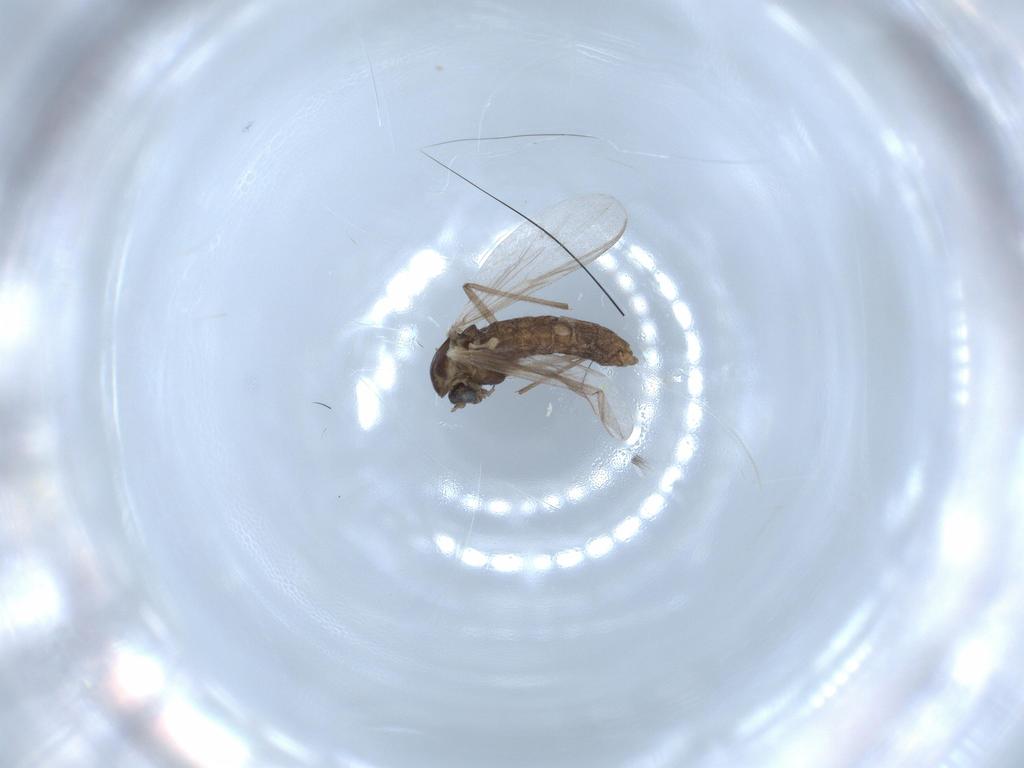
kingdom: Animalia
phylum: Arthropoda
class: Insecta
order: Diptera
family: Chironomidae
